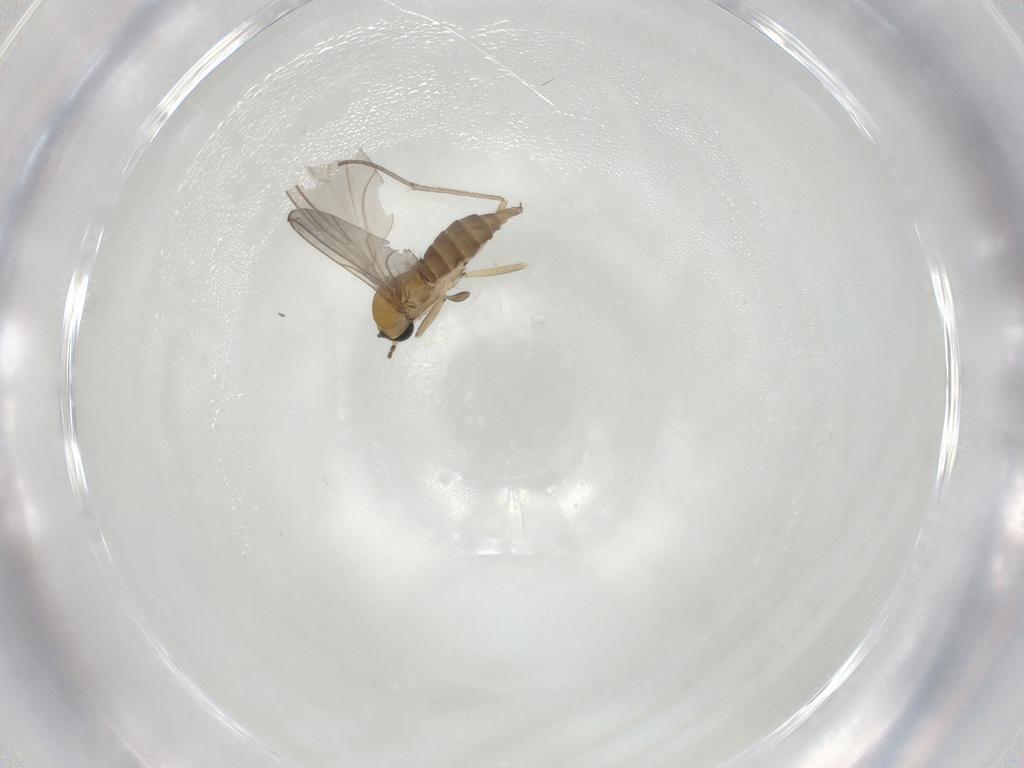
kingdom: Animalia
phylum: Arthropoda
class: Insecta
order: Diptera
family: Sciaridae
